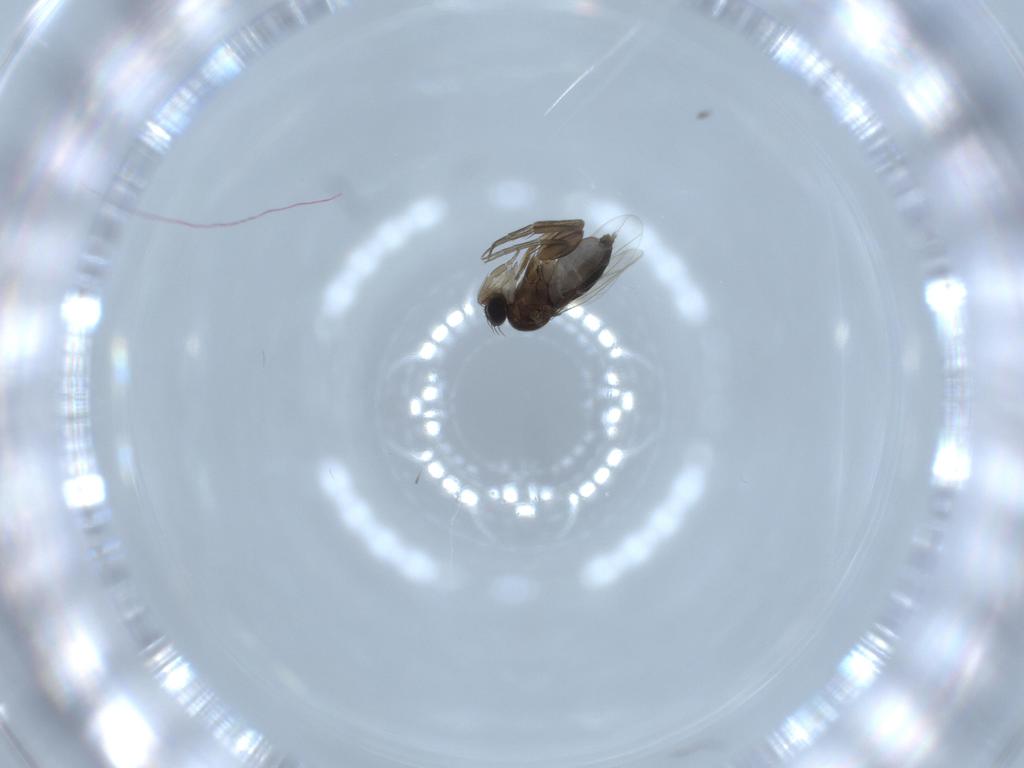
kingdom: Animalia
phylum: Arthropoda
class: Insecta
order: Diptera
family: Phoridae
